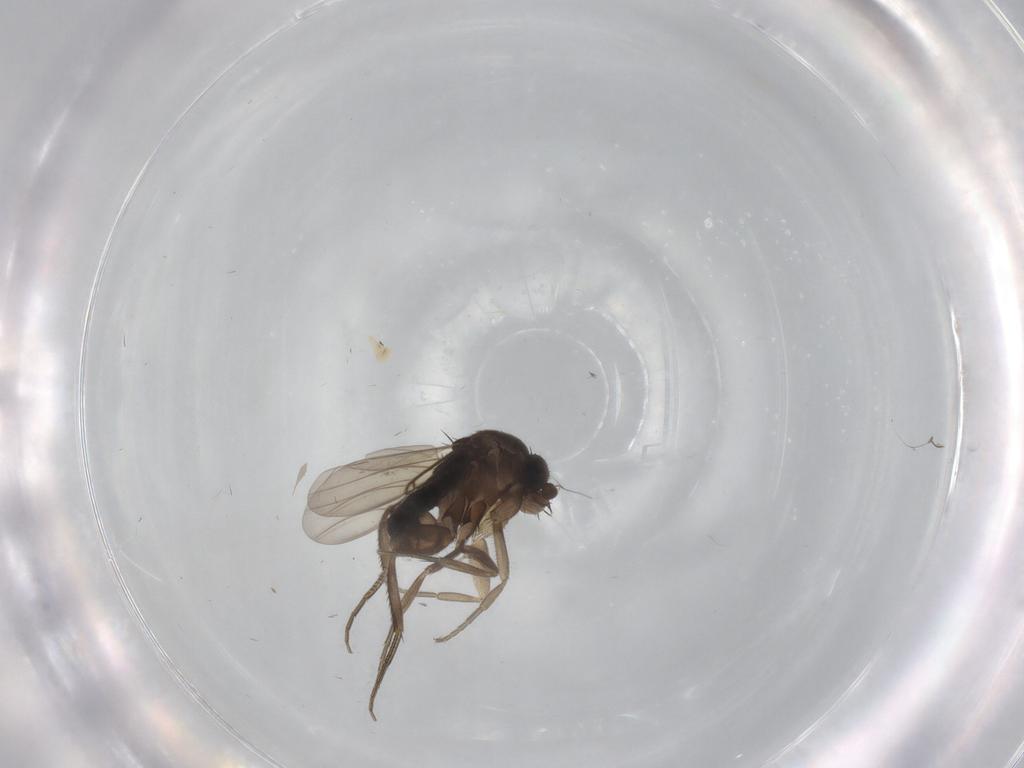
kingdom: Animalia
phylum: Arthropoda
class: Insecta
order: Diptera
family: Phoridae
